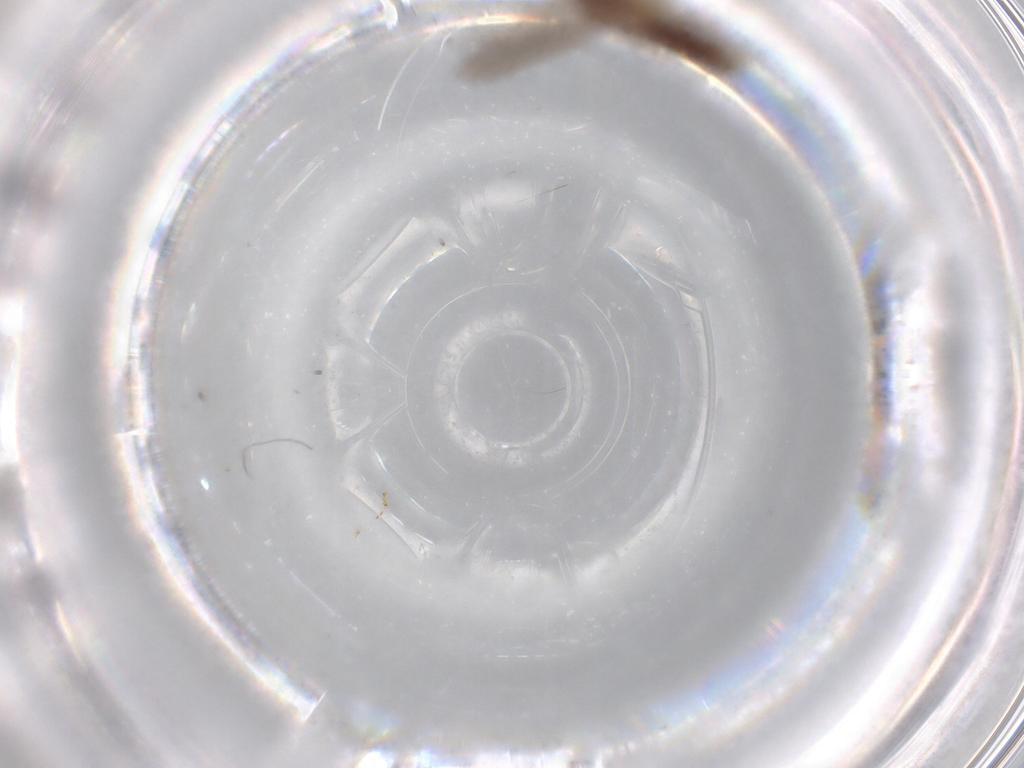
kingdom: Animalia
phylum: Arthropoda
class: Insecta
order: Psocodea
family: Lepidopsocidae
